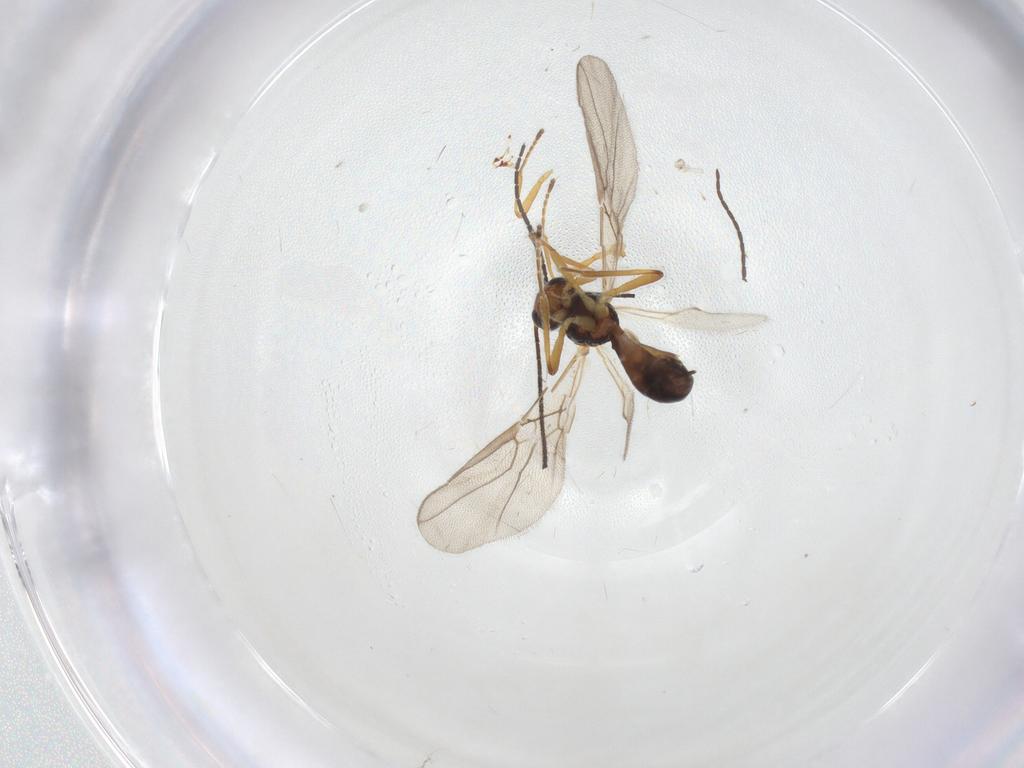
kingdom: Animalia
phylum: Arthropoda
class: Insecta
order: Hymenoptera
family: Braconidae
